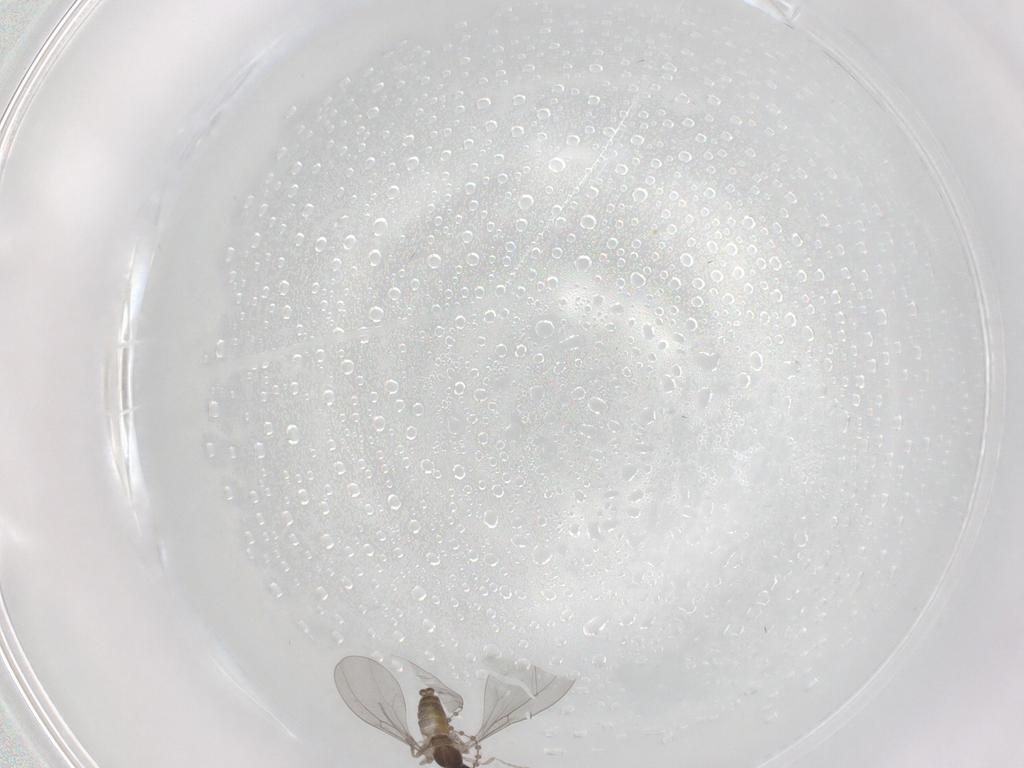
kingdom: Animalia
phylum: Arthropoda
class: Insecta
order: Diptera
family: Cecidomyiidae
